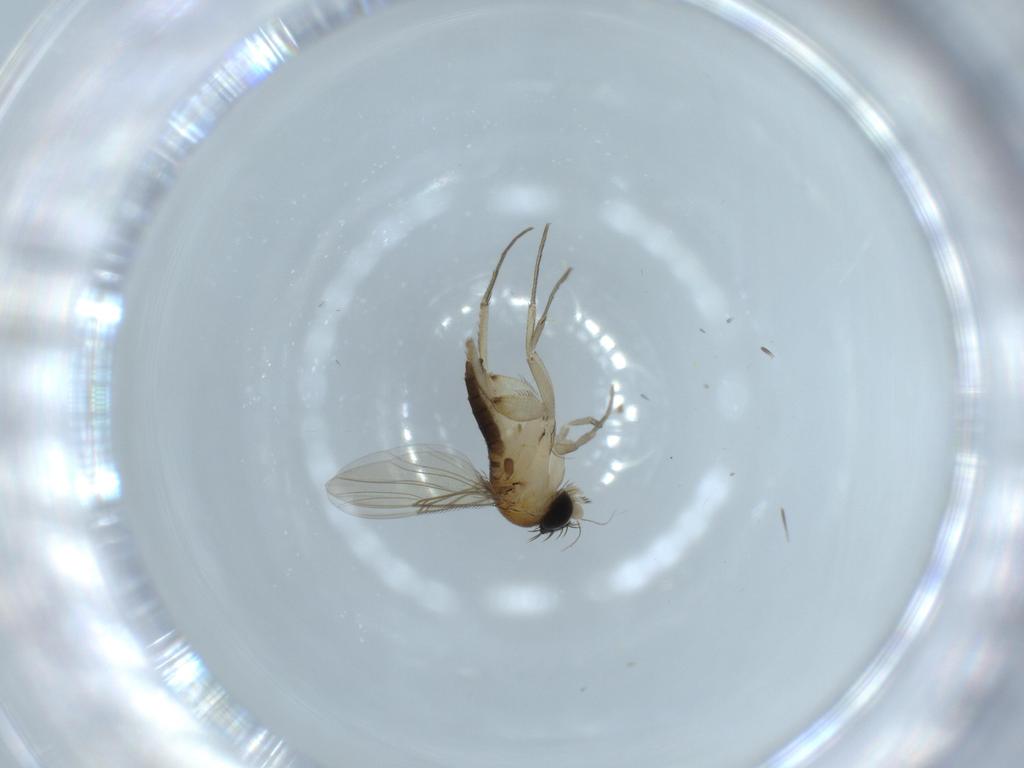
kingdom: Animalia
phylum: Arthropoda
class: Insecta
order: Diptera
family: Phoridae
